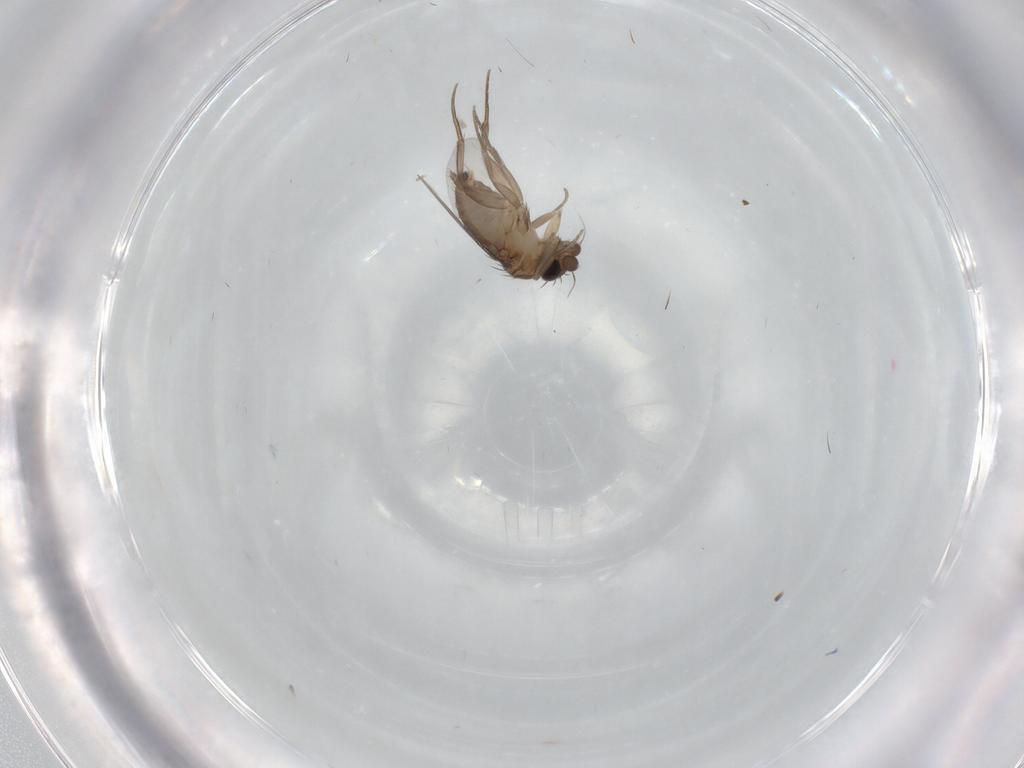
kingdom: Animalia
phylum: Arthropoda
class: Insecta
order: Diptera
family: Phoridae
